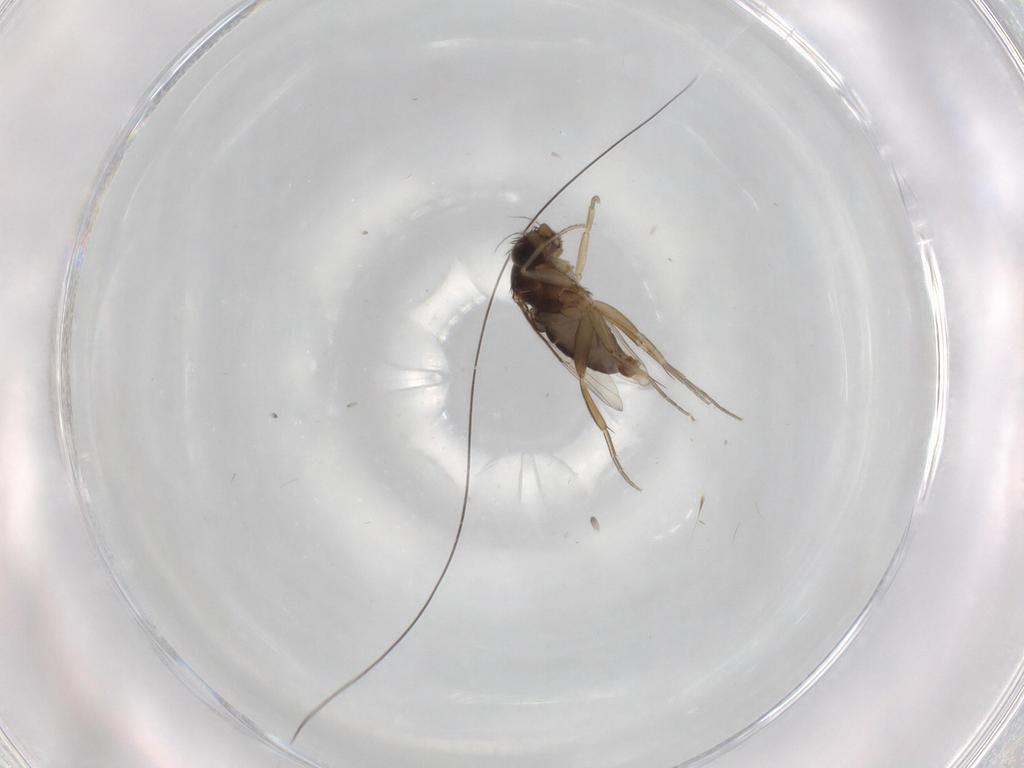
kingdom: Animalia
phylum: Arthropoda
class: Insecta
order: Diptera
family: Phoridae
